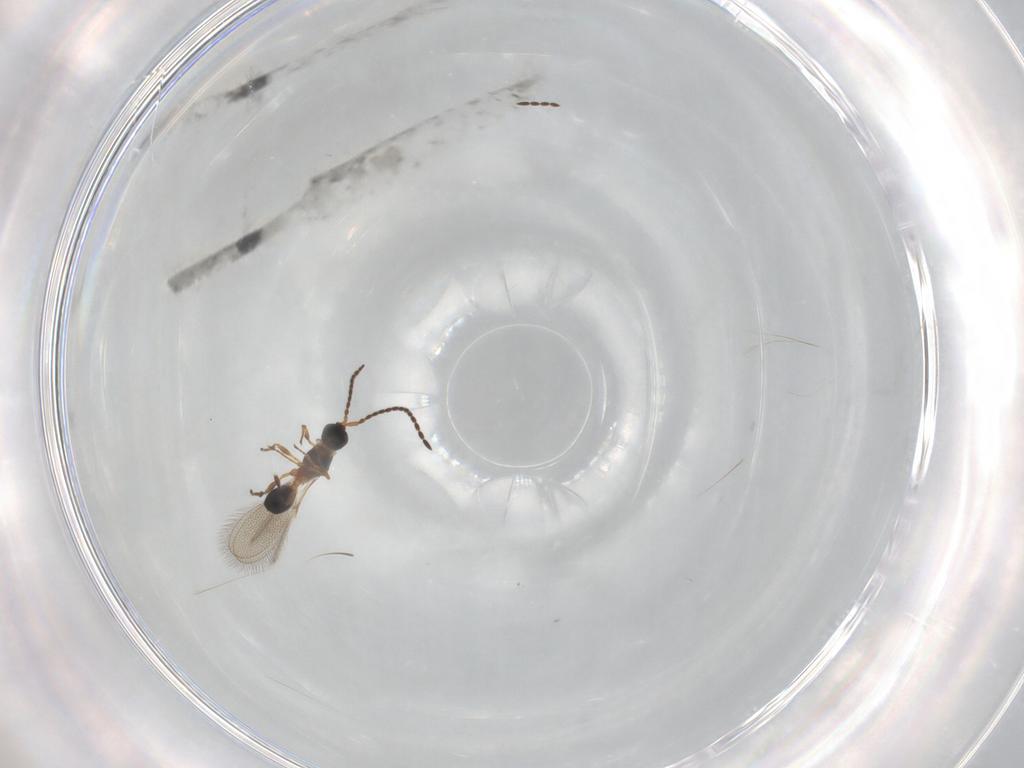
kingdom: Animalia
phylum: Arthropoda
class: Insecta
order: Hymenoptera
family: Diapriidae
